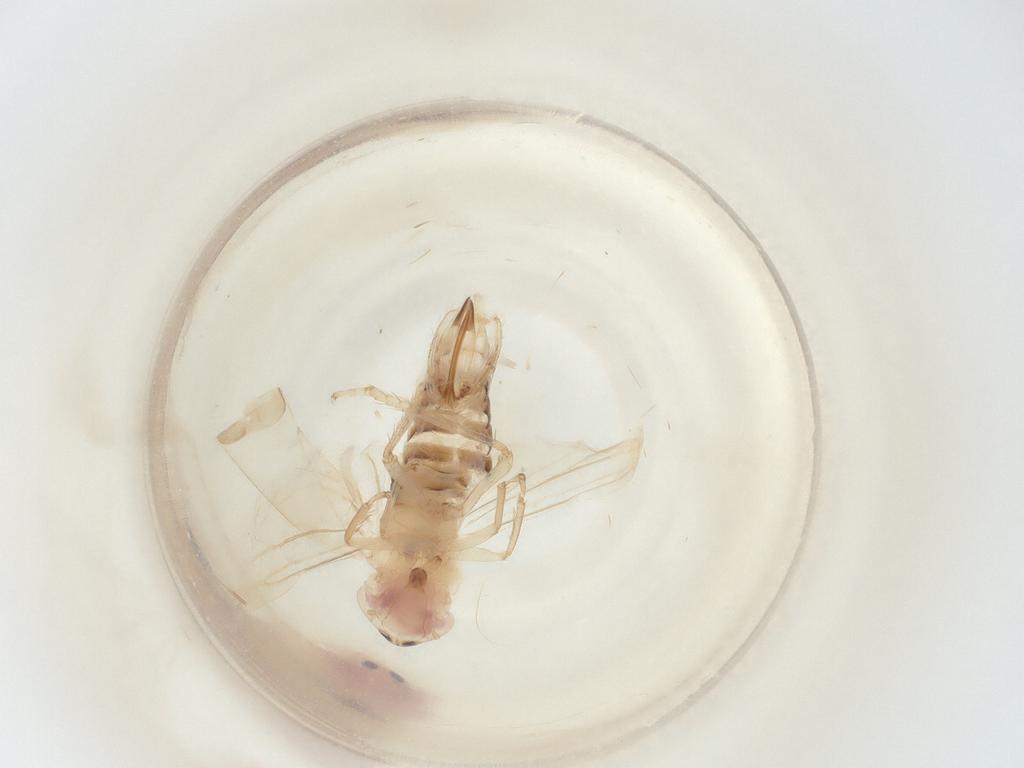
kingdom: Animalia
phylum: Arthropoda
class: Insecta
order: Hemiptera
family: Cicadellidae
